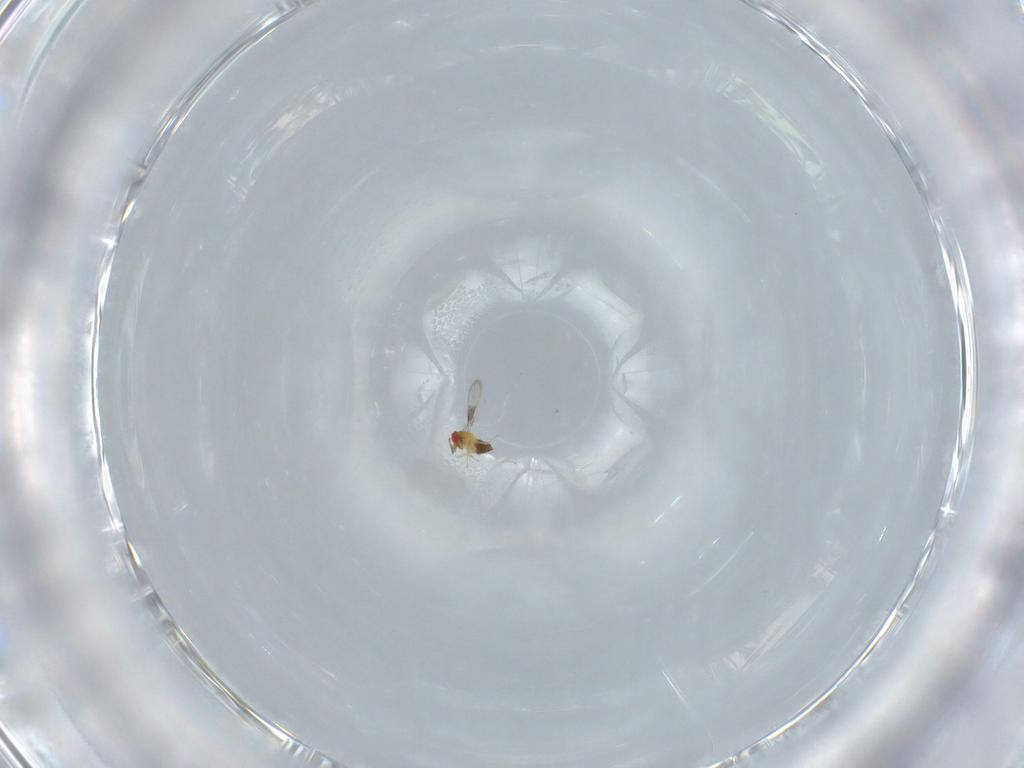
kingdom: Animalia
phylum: Arthropoda
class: Insecta
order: Hymenoptera
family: Trichogrammatidae
